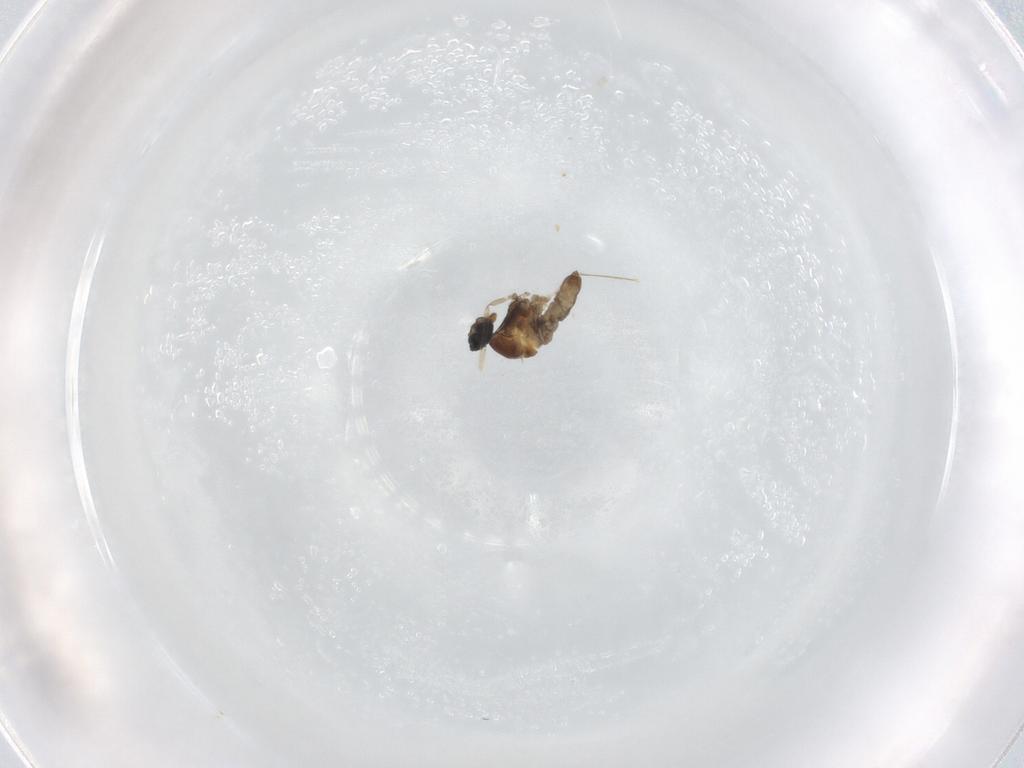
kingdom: Animalia
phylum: Arthropoda
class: Insecta
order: Diptera
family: Cecidomyiidae
